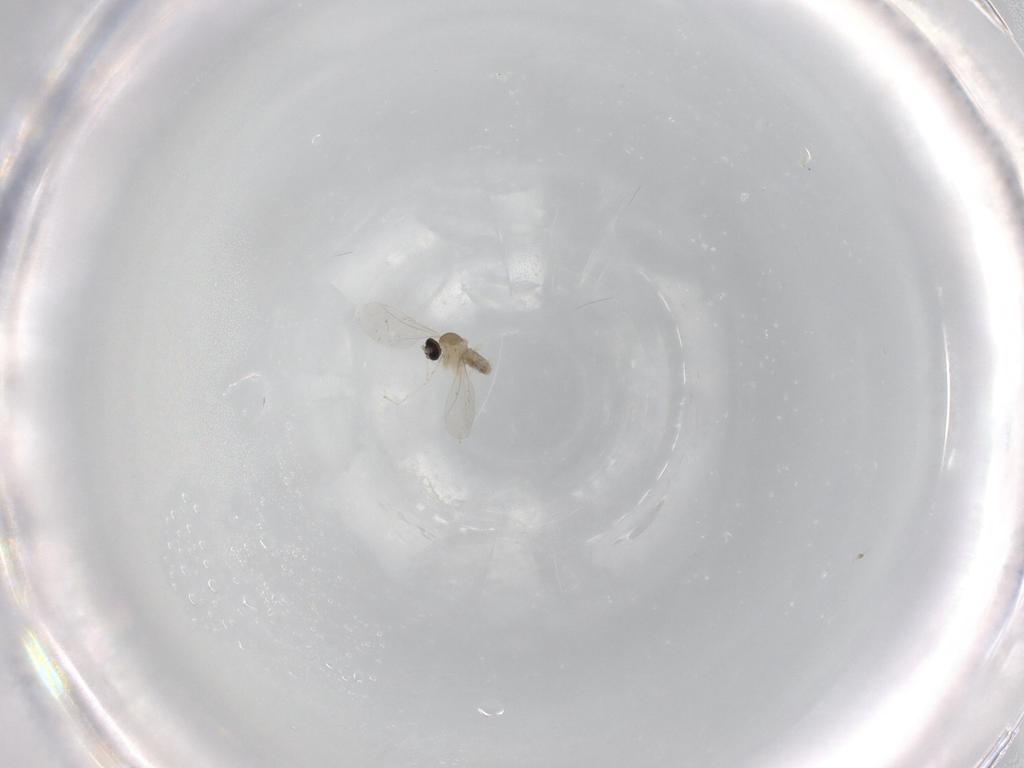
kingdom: Animalia
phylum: Arthropoda
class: Insecta
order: Diptera
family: Cecidomyiidae
